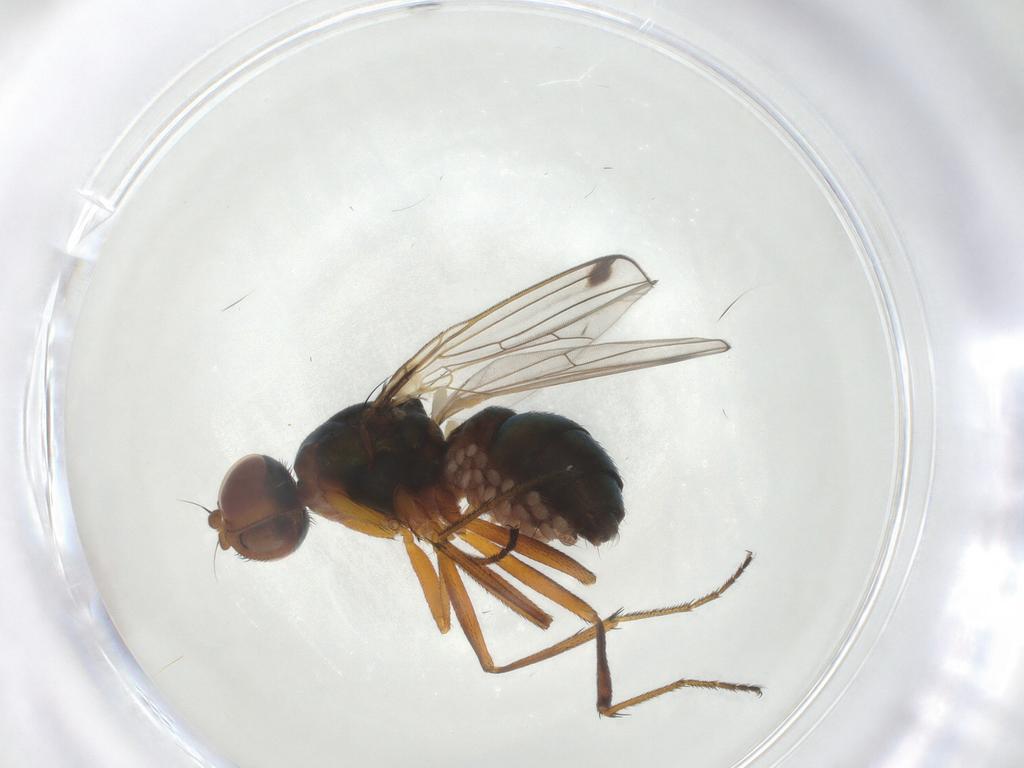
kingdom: Animalia
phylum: Arthropoda
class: Insecta
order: Diptera
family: Sepsidae
